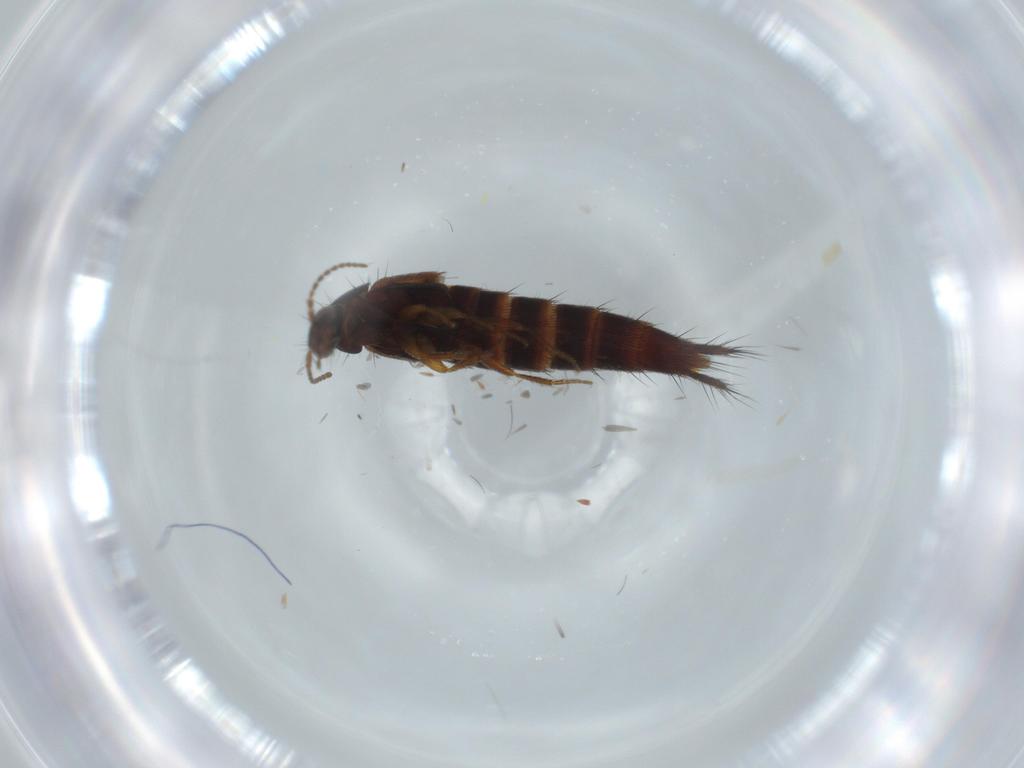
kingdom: Animalia
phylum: Arthropoda
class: Insecta
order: Coleoptera
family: Staphylinidae
